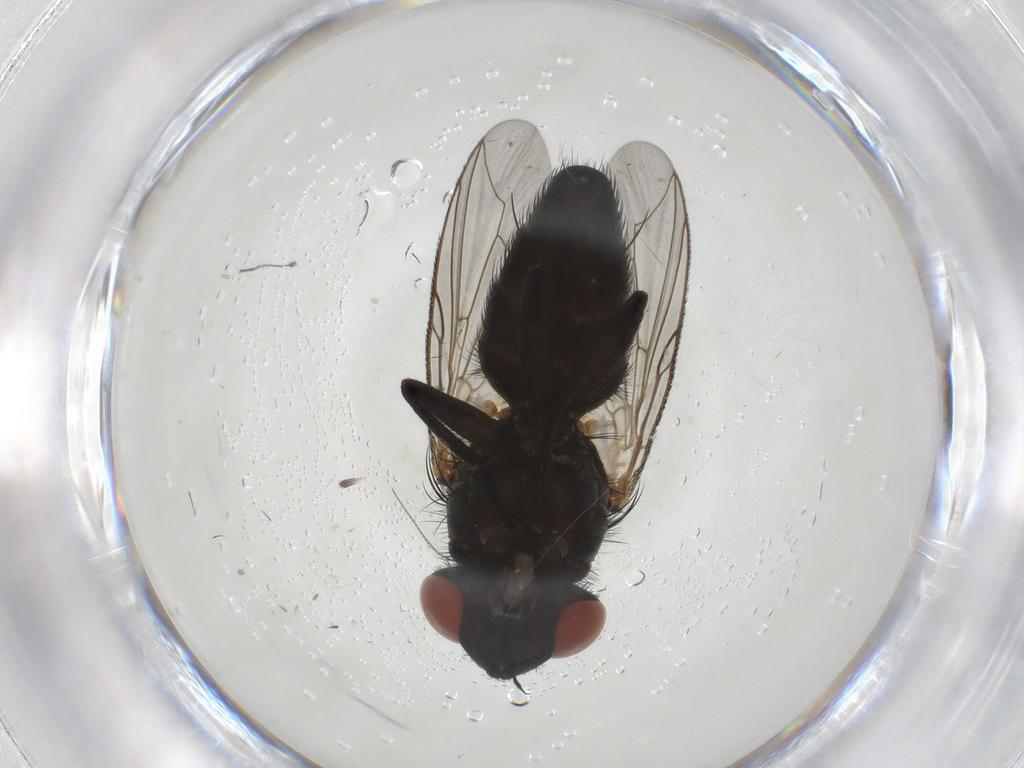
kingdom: Animalia
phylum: Arthropoda
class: Insecta
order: Diptera
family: Sarcophagidae
